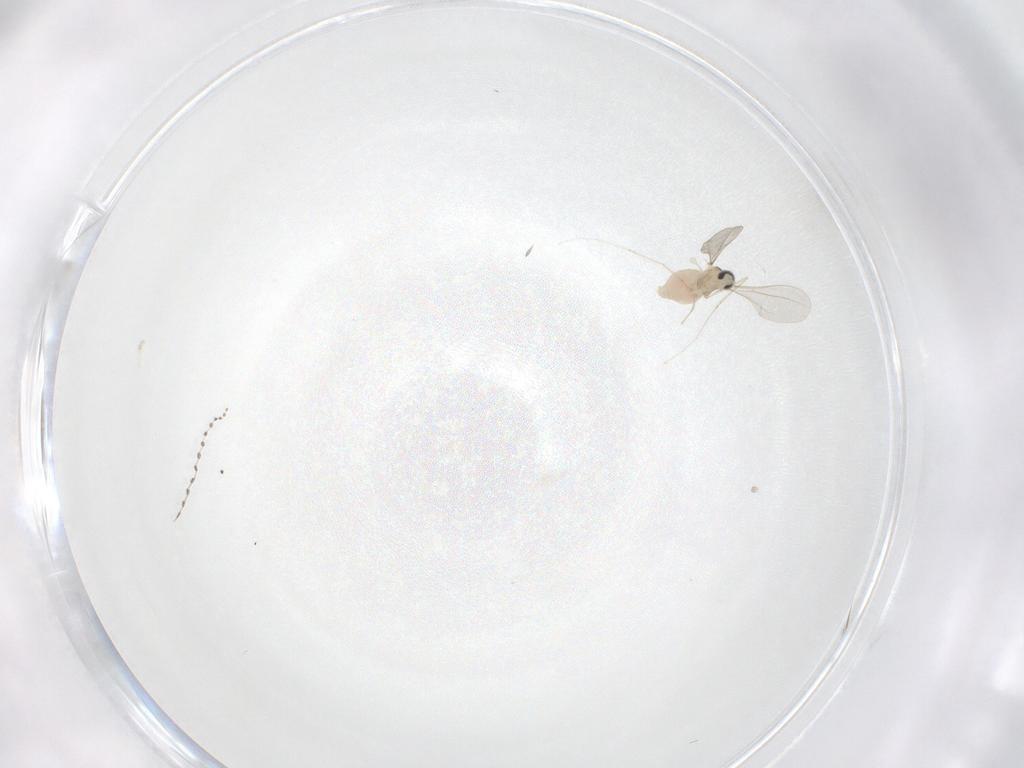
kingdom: Animalia
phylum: Arthropoda
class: Insecta
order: Diptera
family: Cecidomyiidae
